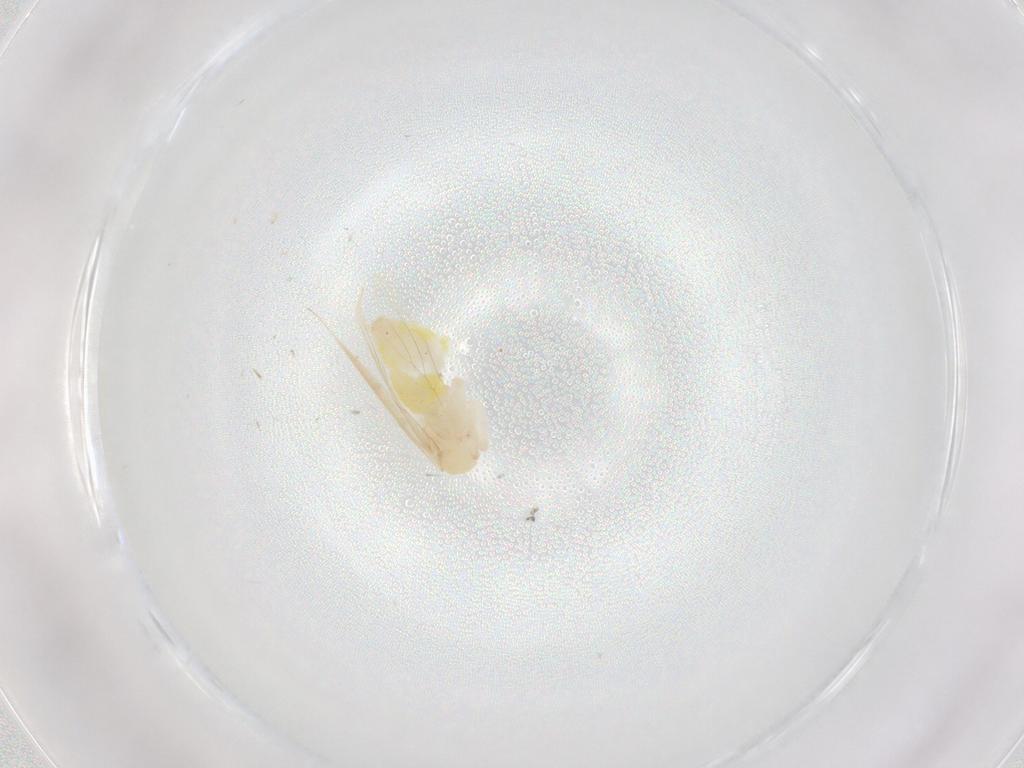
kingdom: Animalia
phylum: Arthropoda
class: Insecta
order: Psocodea
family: Lepidopsocidae
